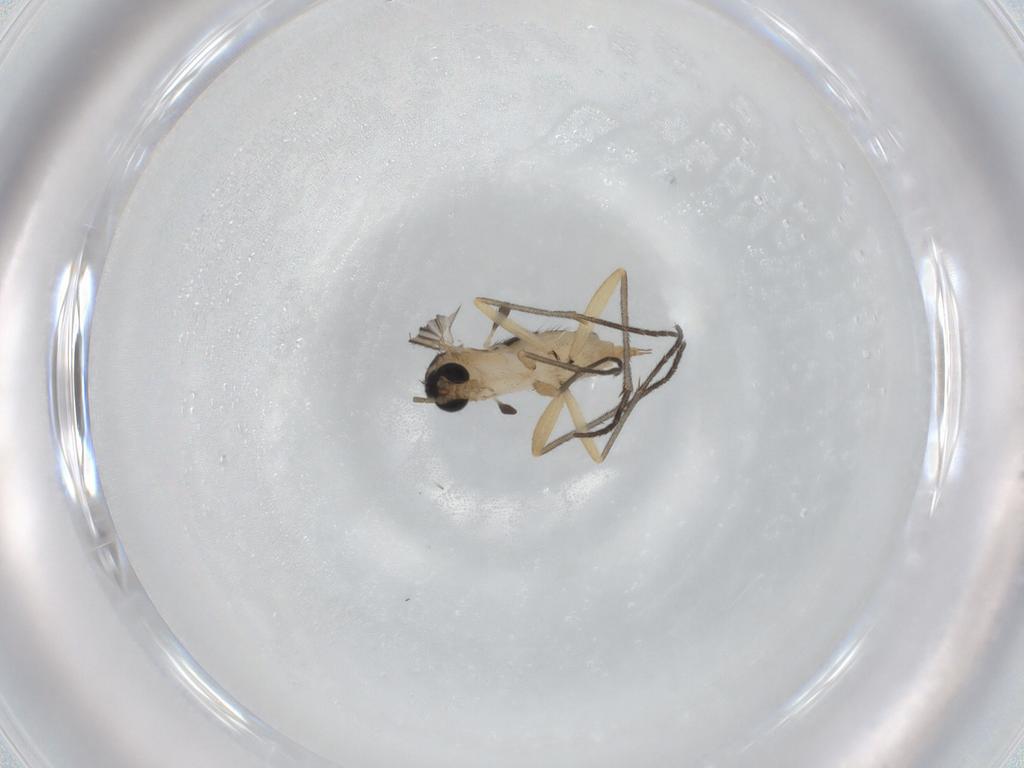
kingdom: Animalia
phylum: Arthropoda
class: Insecta
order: Diptera
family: Sciaridae
